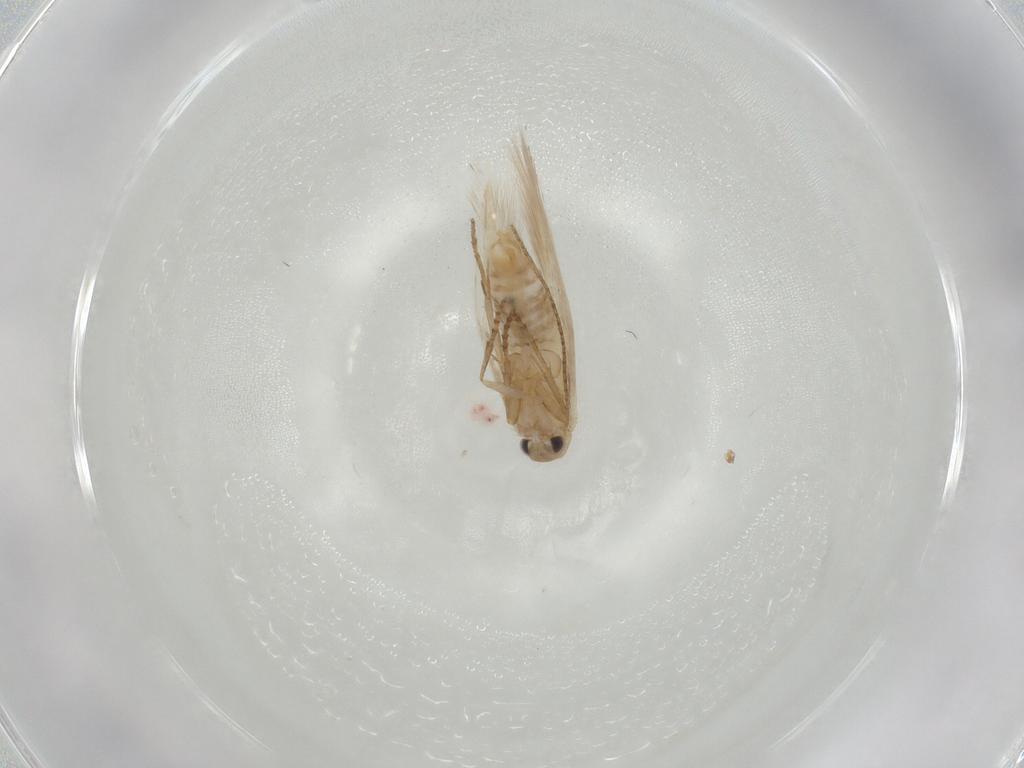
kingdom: Animalia
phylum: Arthropoda
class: Insecta
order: Lepidoptera
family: Bucculatricidae
